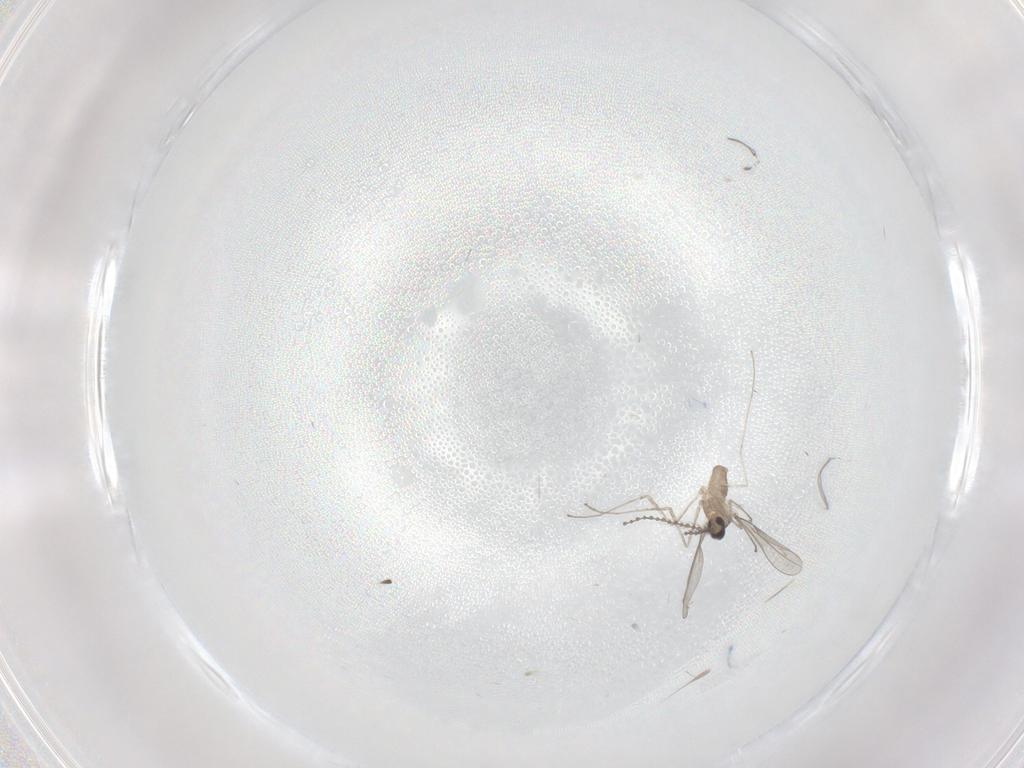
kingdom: Animalia
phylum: Arthropoda
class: Insecta
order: Diptera
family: Cecidomyiidae
